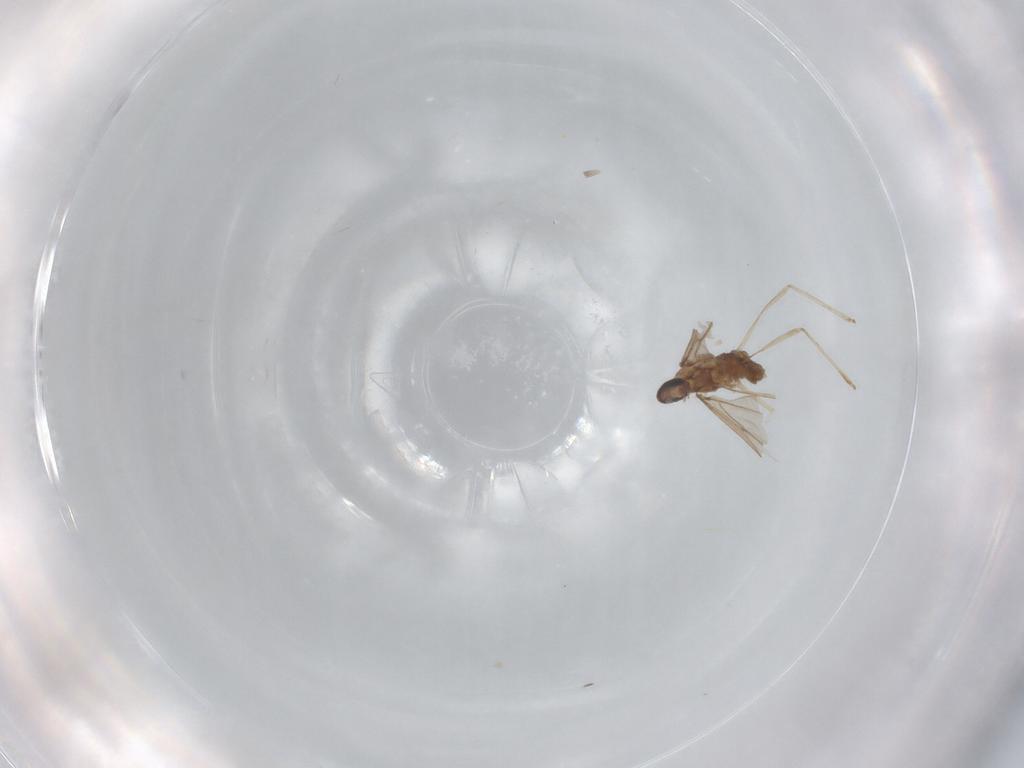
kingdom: Animalia
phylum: Arthropoda
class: Insecta
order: Diptera
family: Cecidomyiidae
